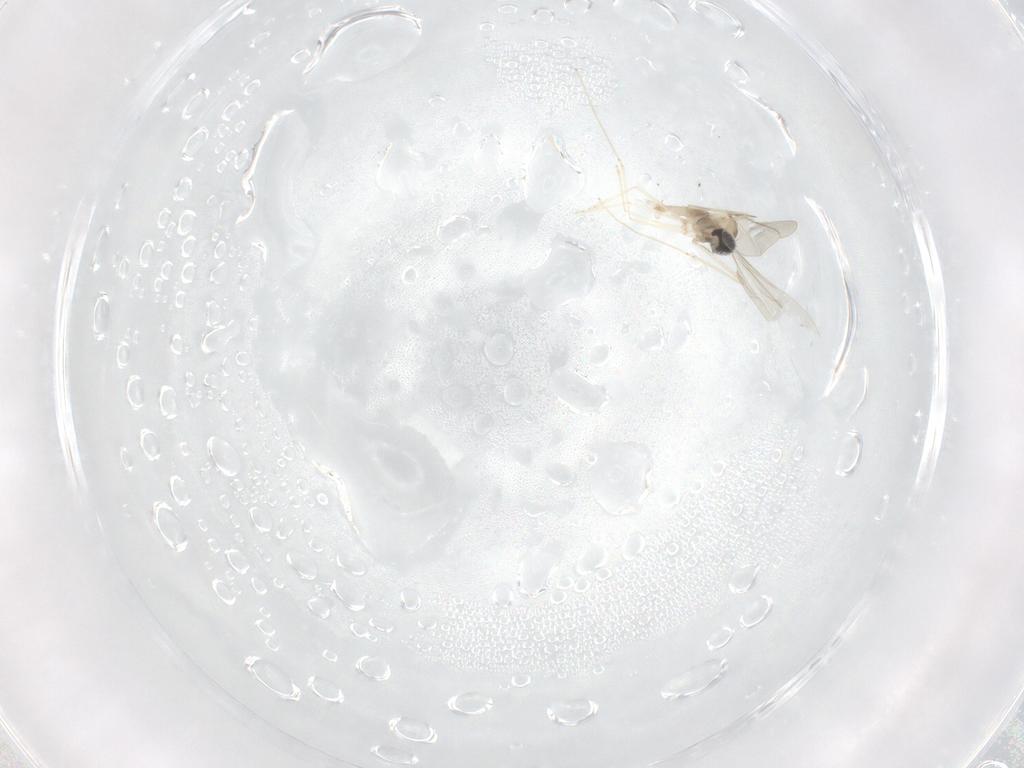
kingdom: Animalia
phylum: Arthropoda
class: Insecta
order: Diptera
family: Cecidomyiidae
